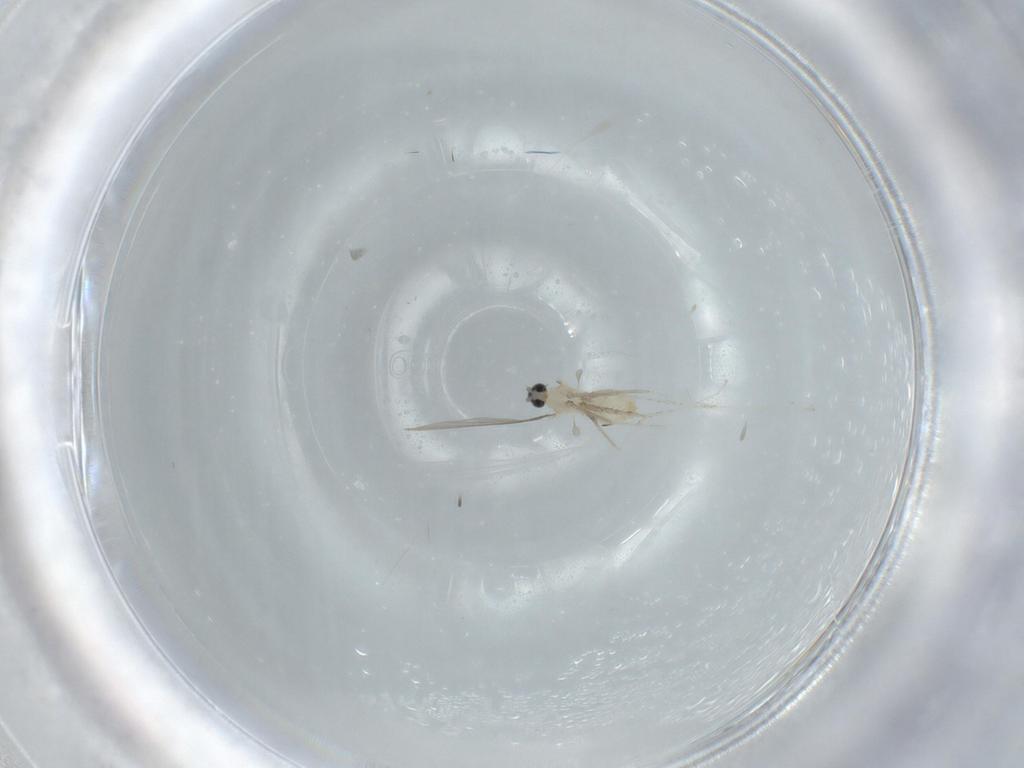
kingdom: Animalia
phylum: Arthropoda
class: Insecta
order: Diptera
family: Cecidomyiidae
